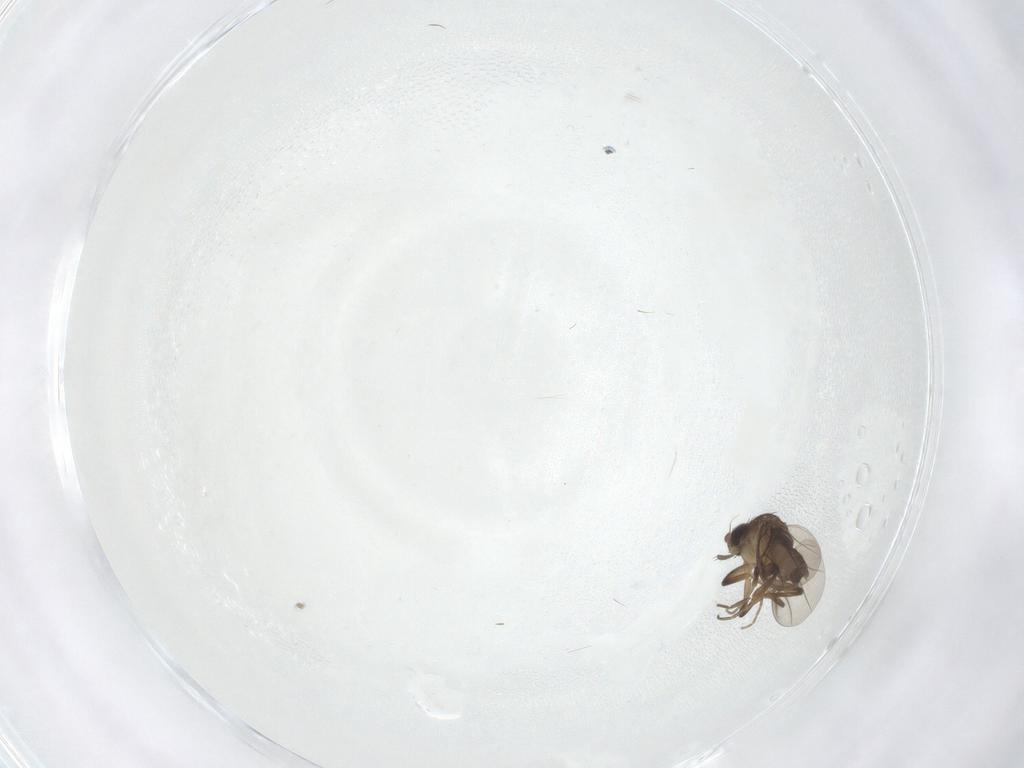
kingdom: Animalia
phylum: Arthropoda
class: Insecta
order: Diptera
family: Phoridae
